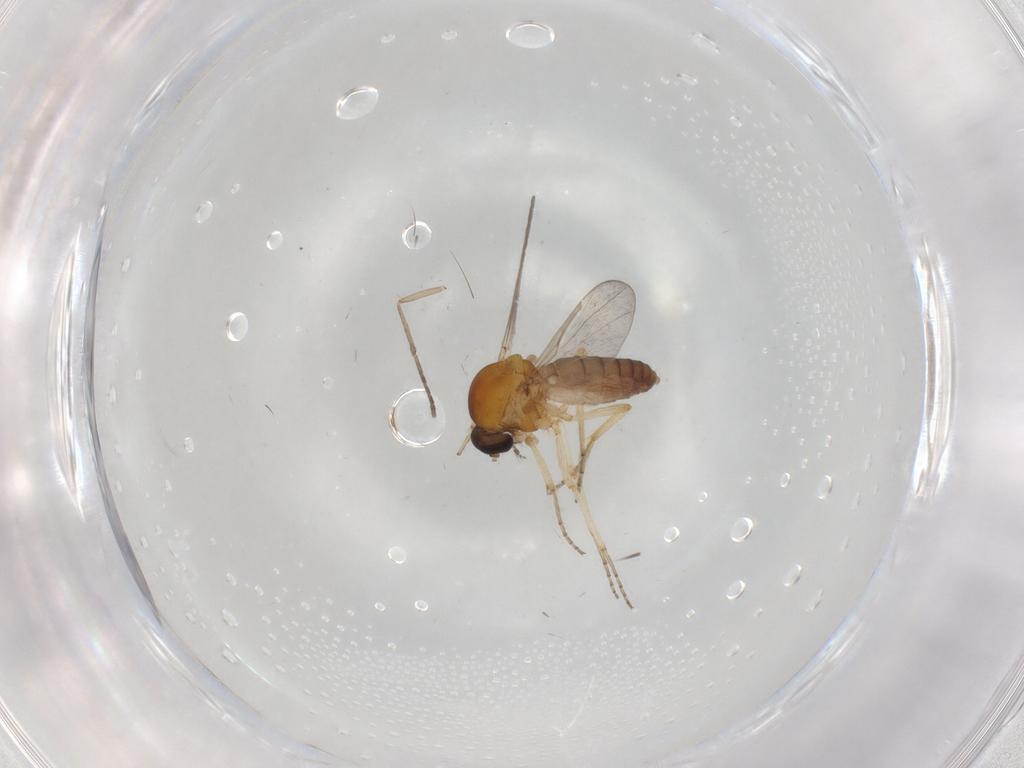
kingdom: Animalia
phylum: Arthropoda
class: Insecta
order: Diptera
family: Ceratopogonidae
